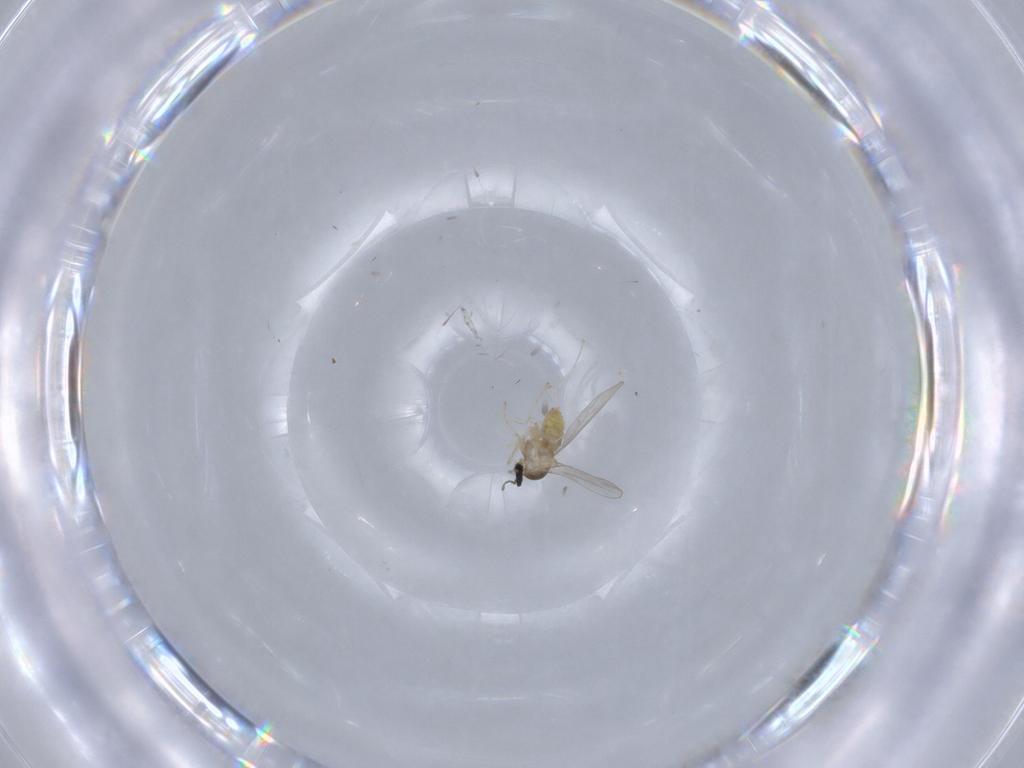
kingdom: Animalia
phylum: Arthropoda
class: Insecta
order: Diptera
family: Cecidomyiidae
